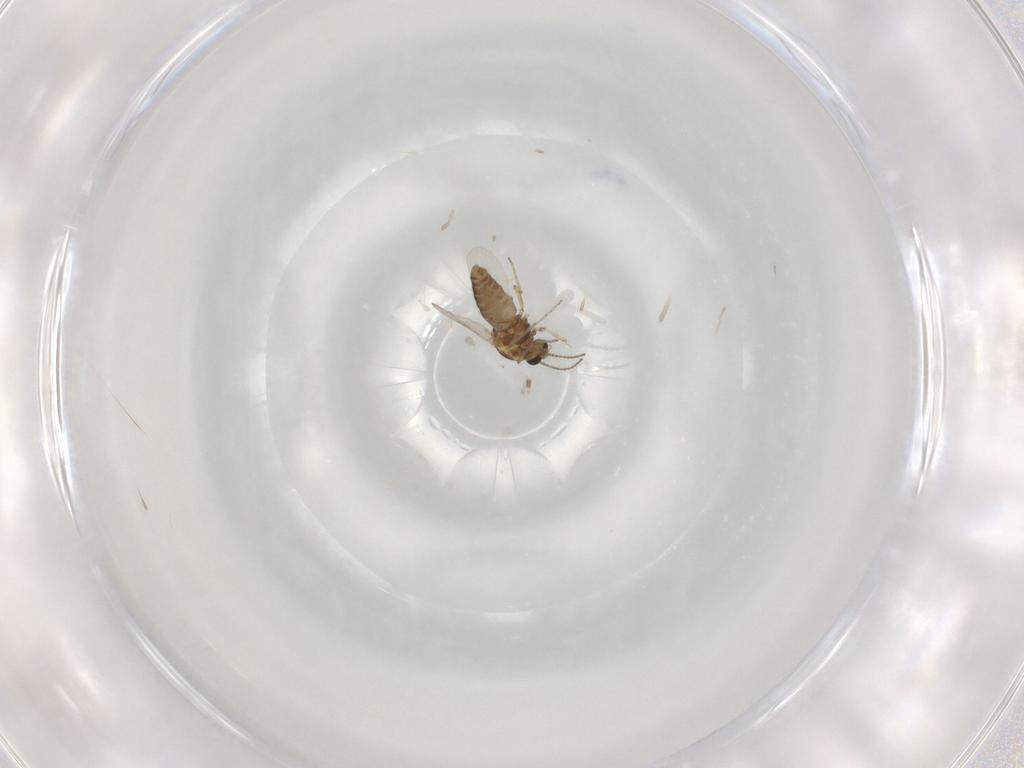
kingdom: Animalia
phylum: Arthropoda
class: Insecta
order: Diptera
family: Ceratopogonidae
